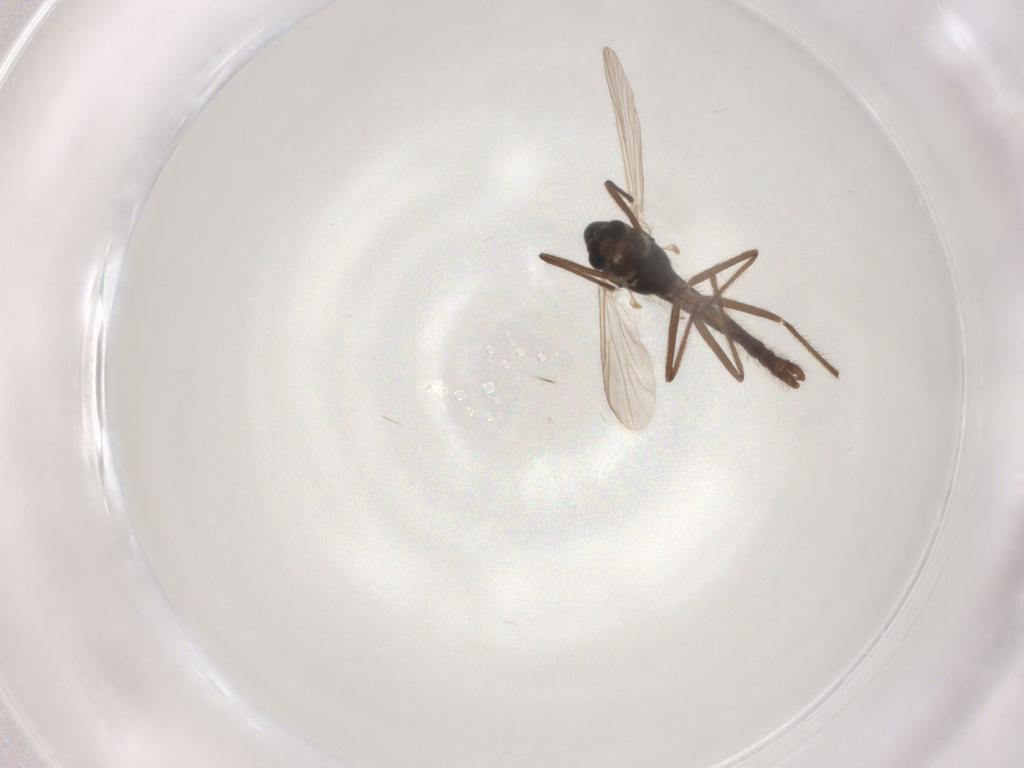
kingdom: Animalia
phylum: Arthropoda
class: Insecta
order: Diptera
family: Chironomidae
